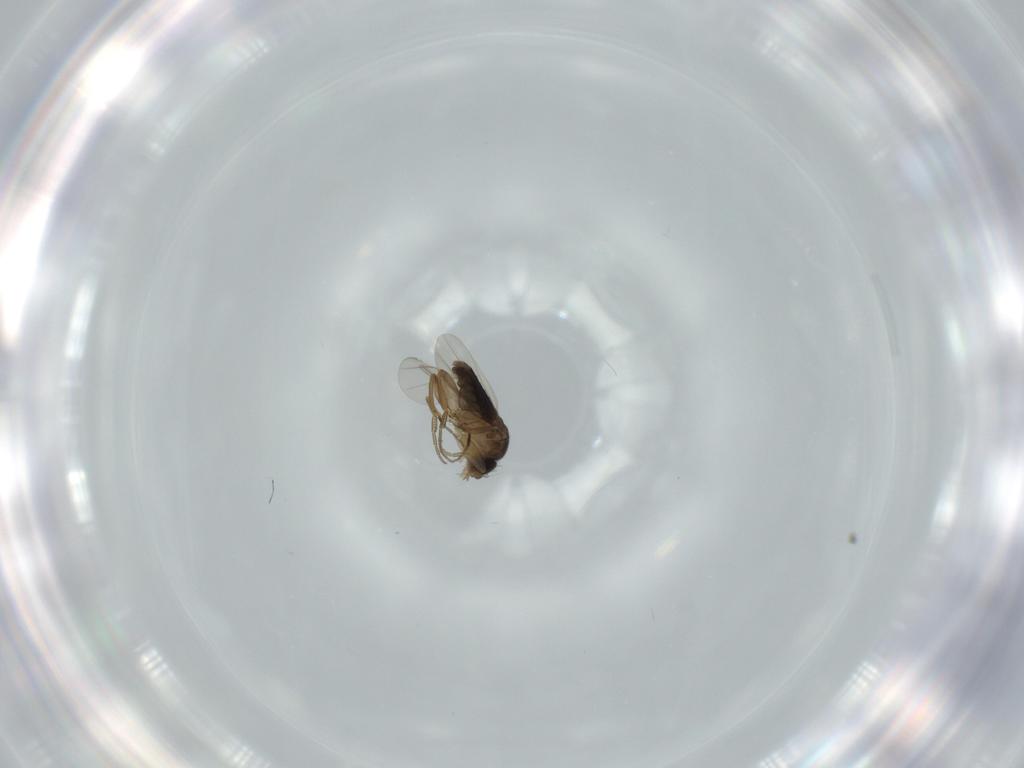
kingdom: Animalia
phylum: Arthropoda
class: Insecta
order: Diptera
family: Phoridae
